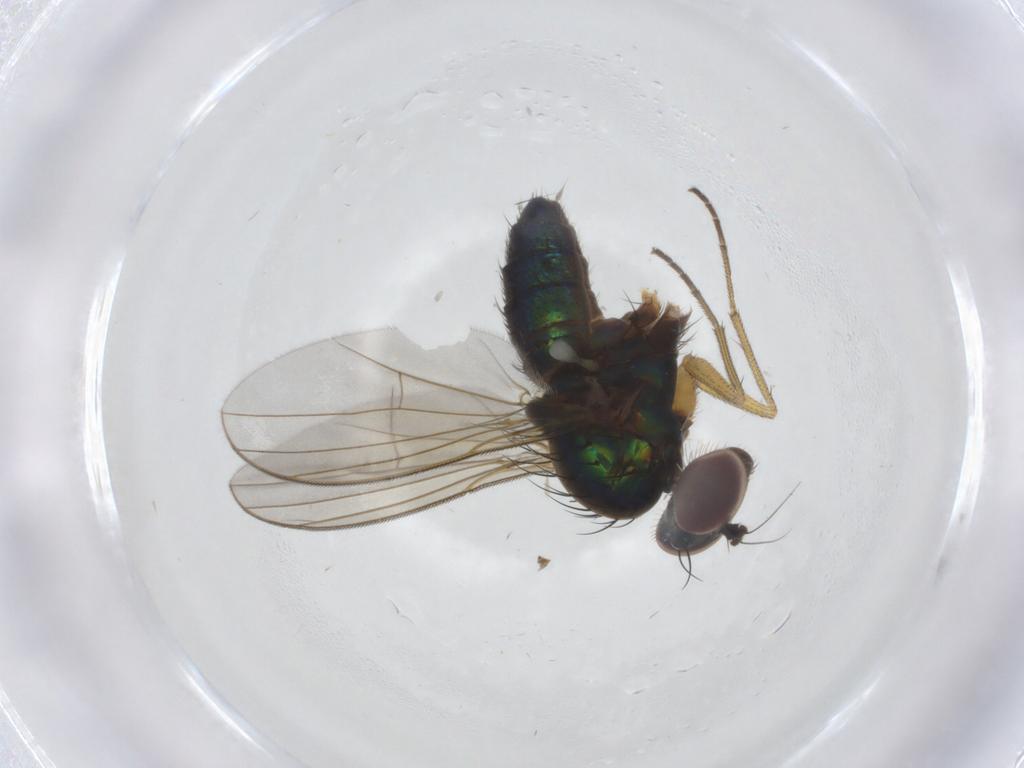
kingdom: Animalia
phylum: Arthropoda
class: Insecta
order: Diptera
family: Dolichopodidae
